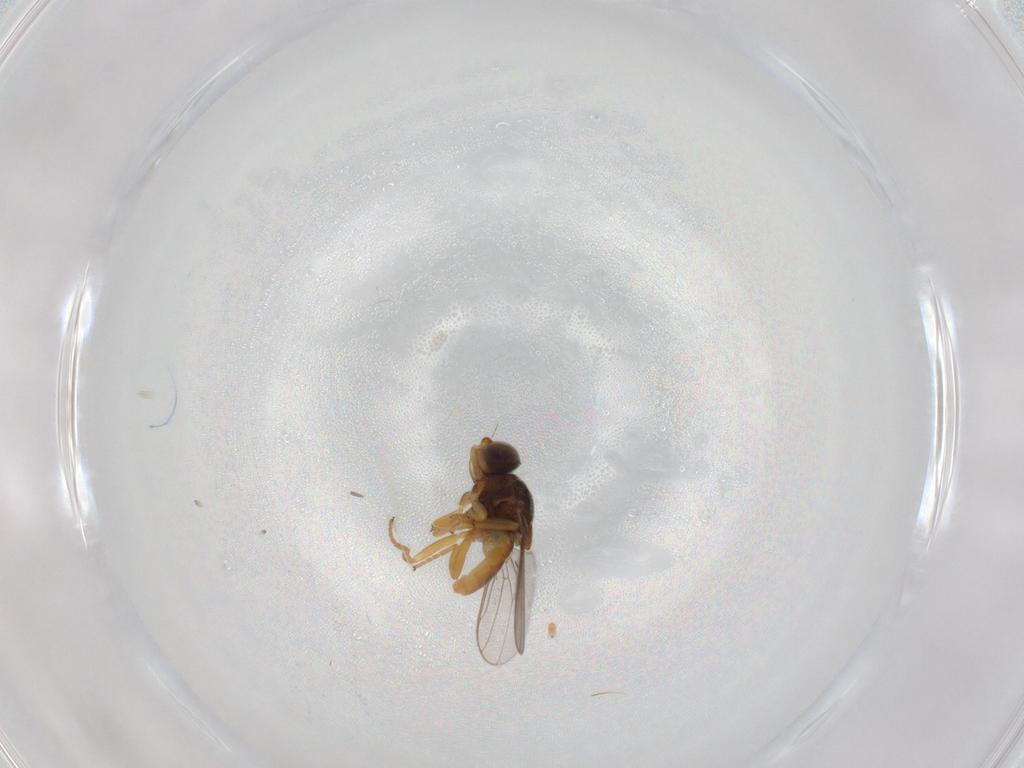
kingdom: Animalia
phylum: Arthropoda
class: Insecta
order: Diptera
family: Chloropidae
